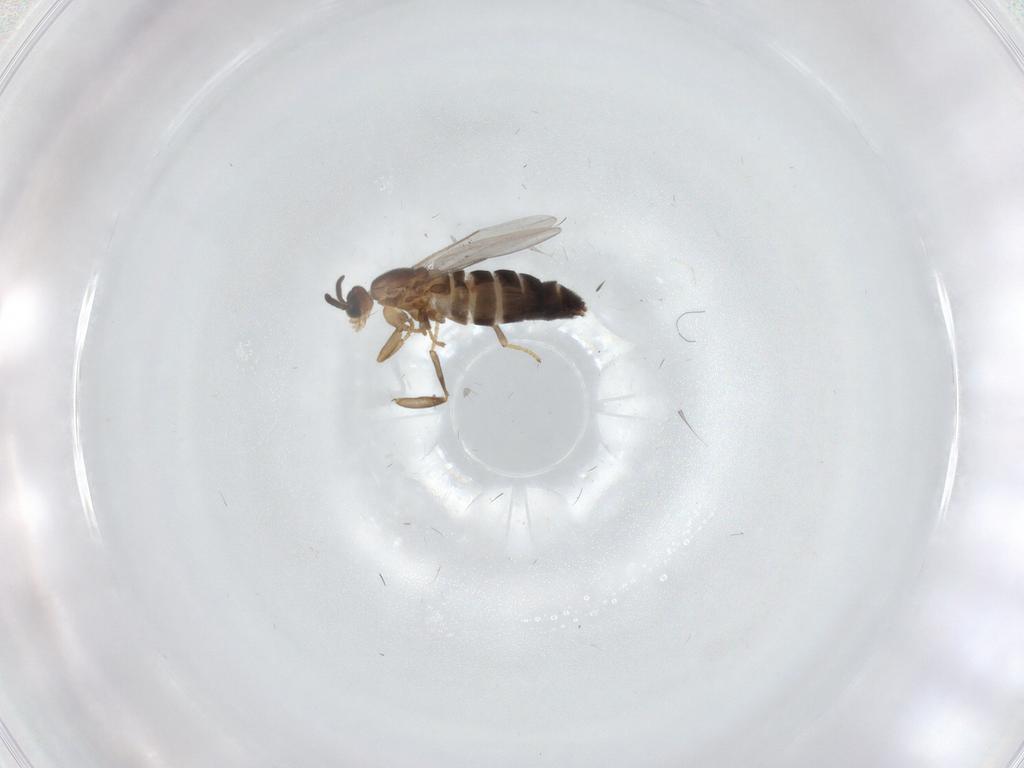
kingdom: Animalia
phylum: Arthropoda
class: Insecta
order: Diptera
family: Scatopsidae
